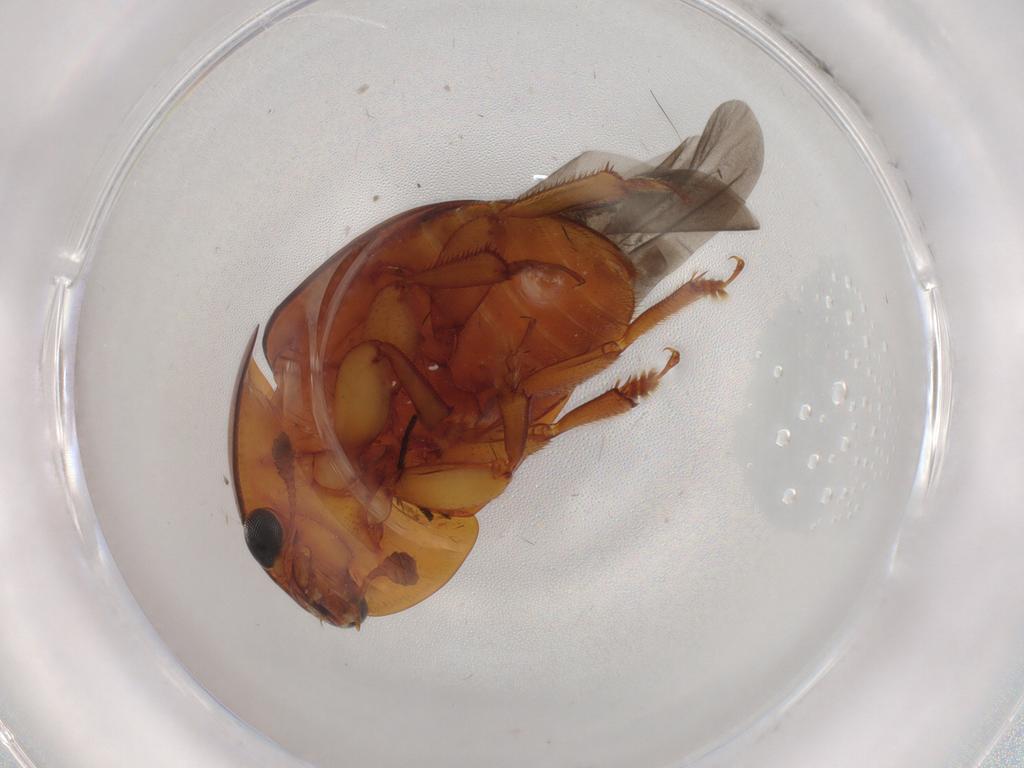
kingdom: Animalia
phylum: Arthropoda
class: Insecta
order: Coleoptera
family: Nitidulidae
